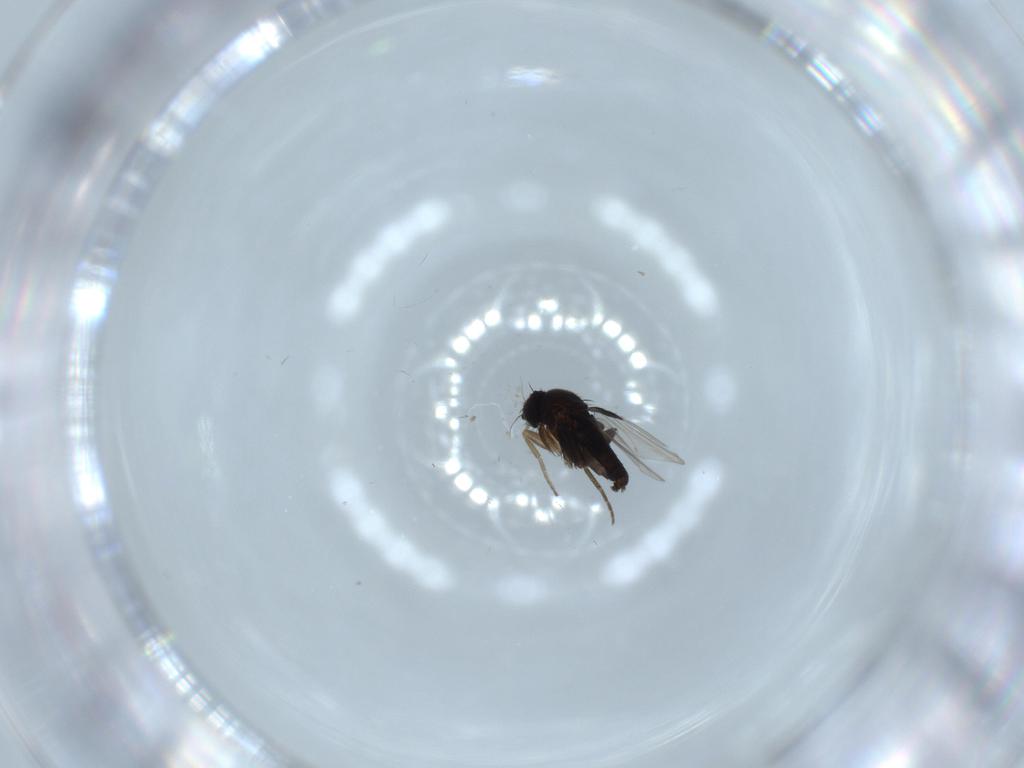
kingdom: Animalia
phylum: Arthropoda
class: Insecta
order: Diptera
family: Phoridae
